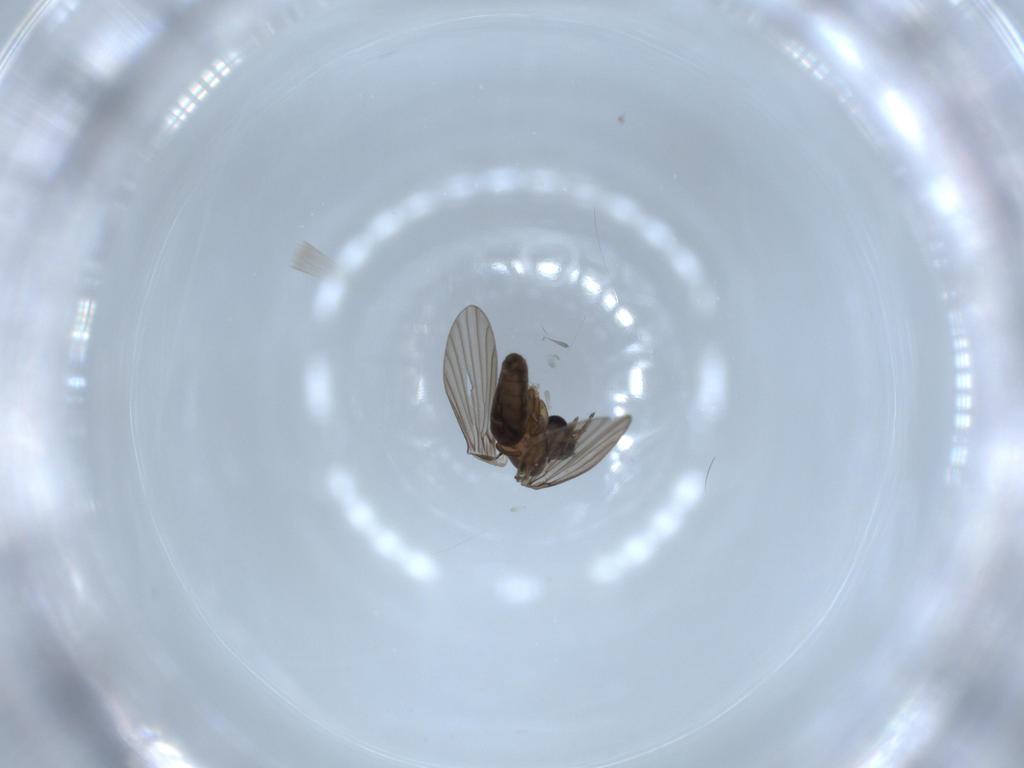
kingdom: Animalia
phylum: Arthropoda
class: Insecta
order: Diptera
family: Psychodidae
